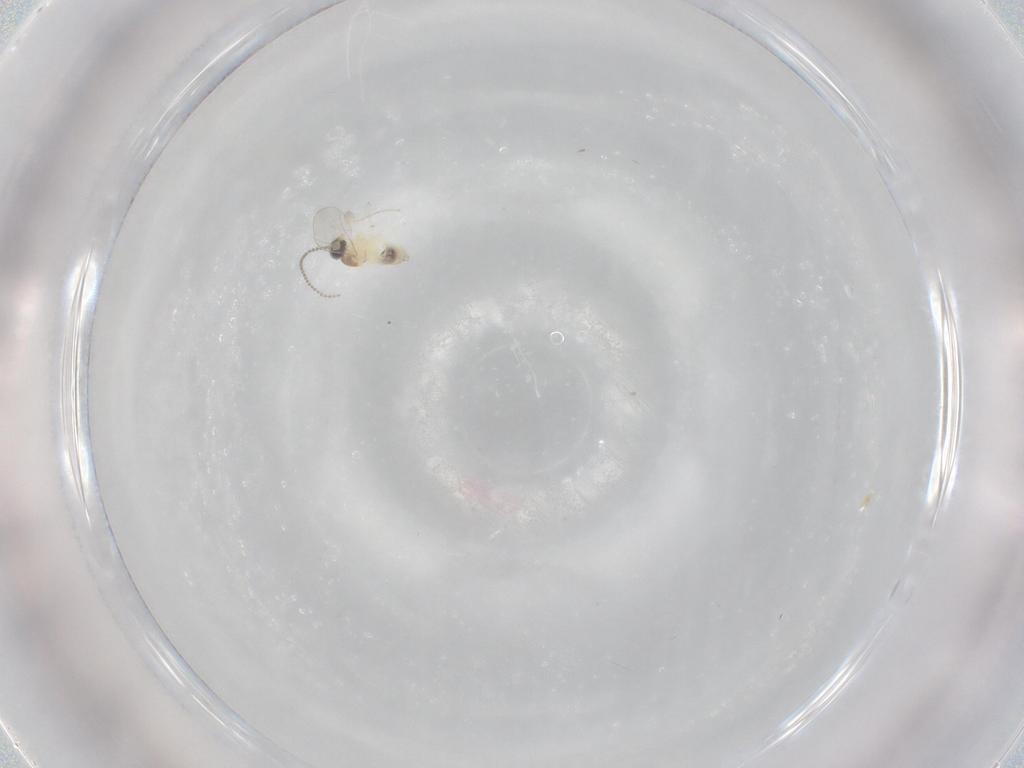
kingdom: Animalia
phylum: Arthropoda
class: Insecta
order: Diptera
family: Cecidomyiidae
